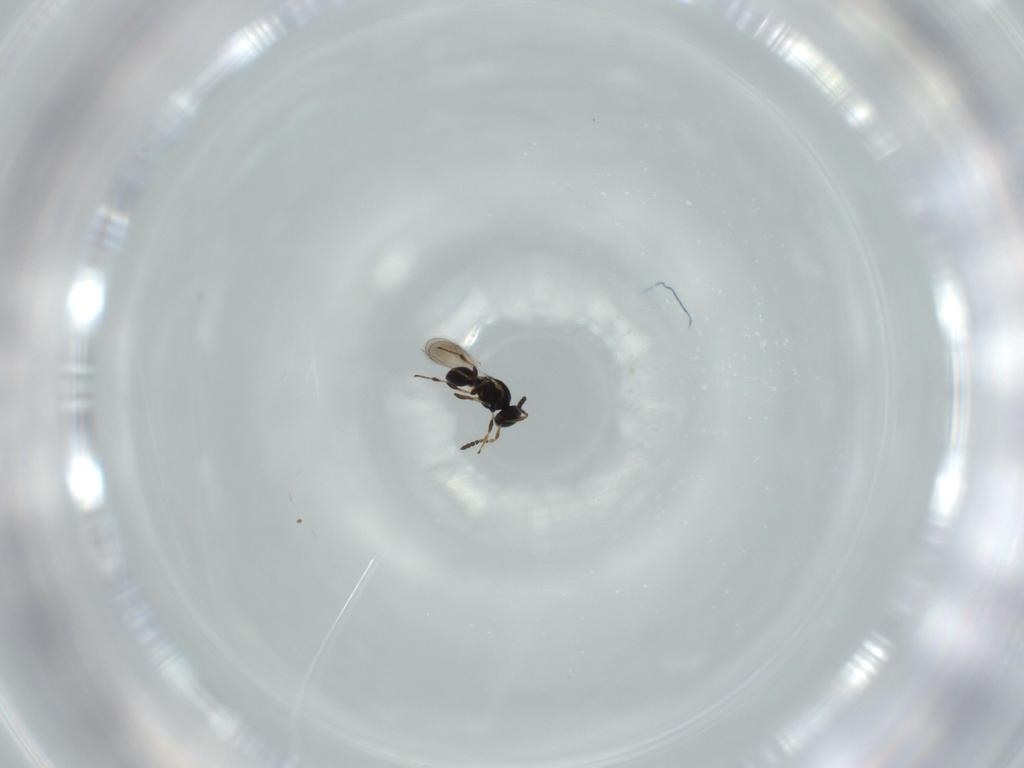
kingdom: Animalia
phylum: Arthropoda
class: Insecta
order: Hymenoptera
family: Platygastridae
